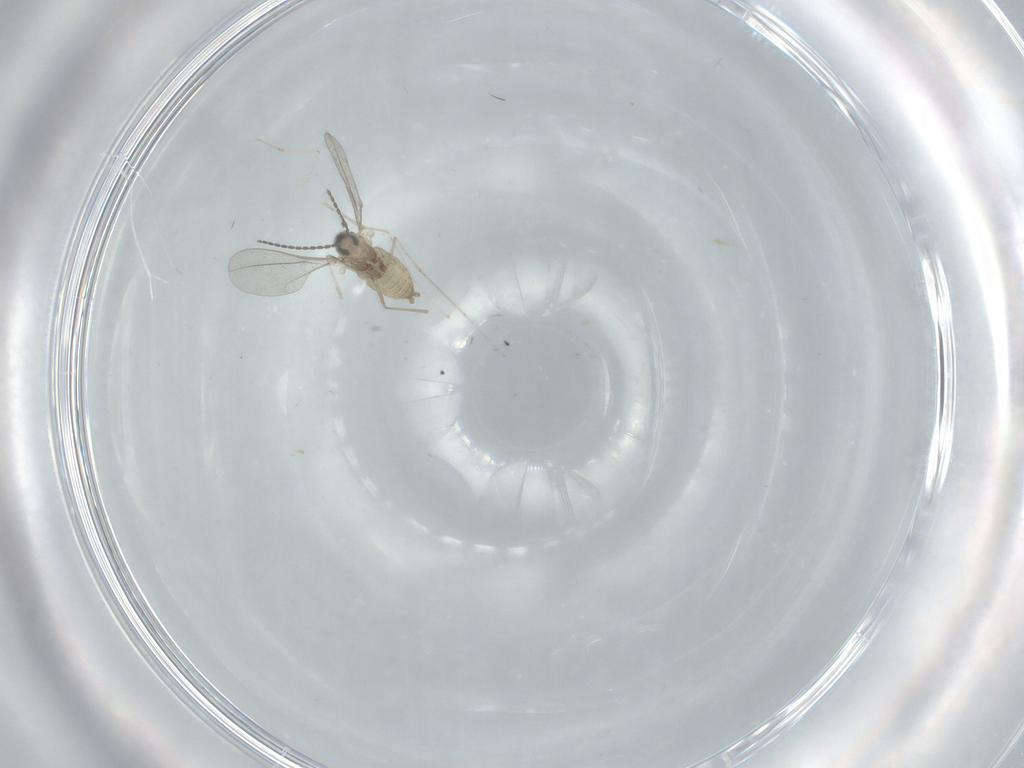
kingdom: Animalia
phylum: Arthropoda
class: Insecta
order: Diptera
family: Cecidomyiidae
